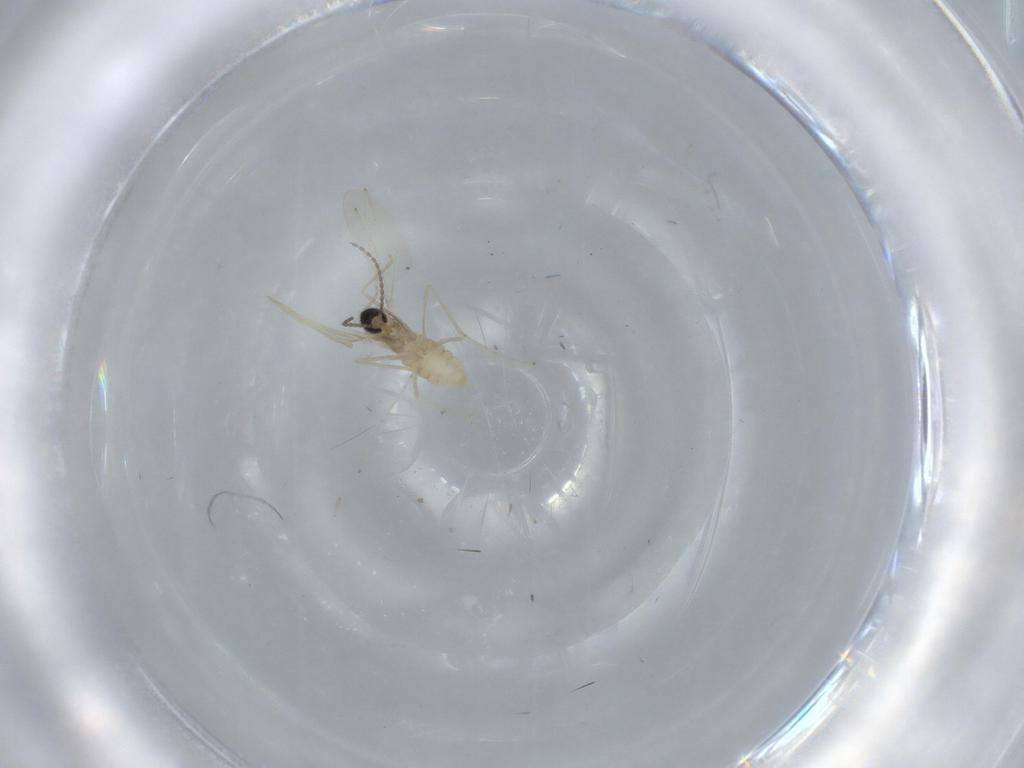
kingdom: Animalia
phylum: Arthropoda
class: Insecta
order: Diptera
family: Cecidomyiidae
